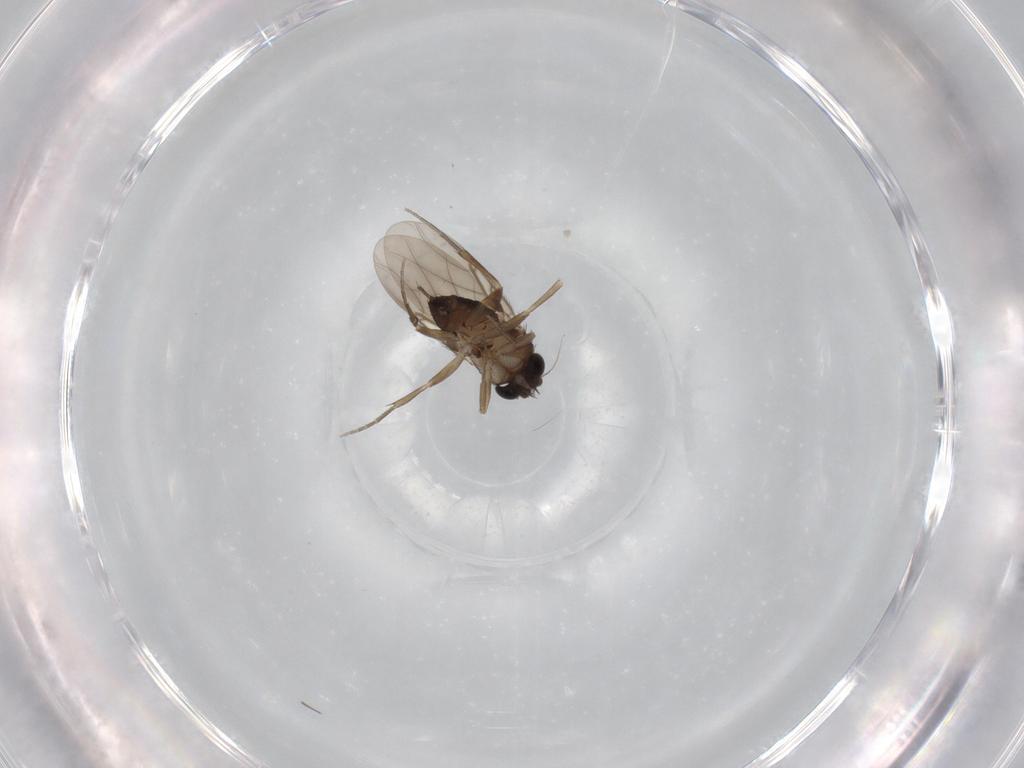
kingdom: Animalia
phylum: Arthropoda
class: Insecta
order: Diptera
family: Phoridae
